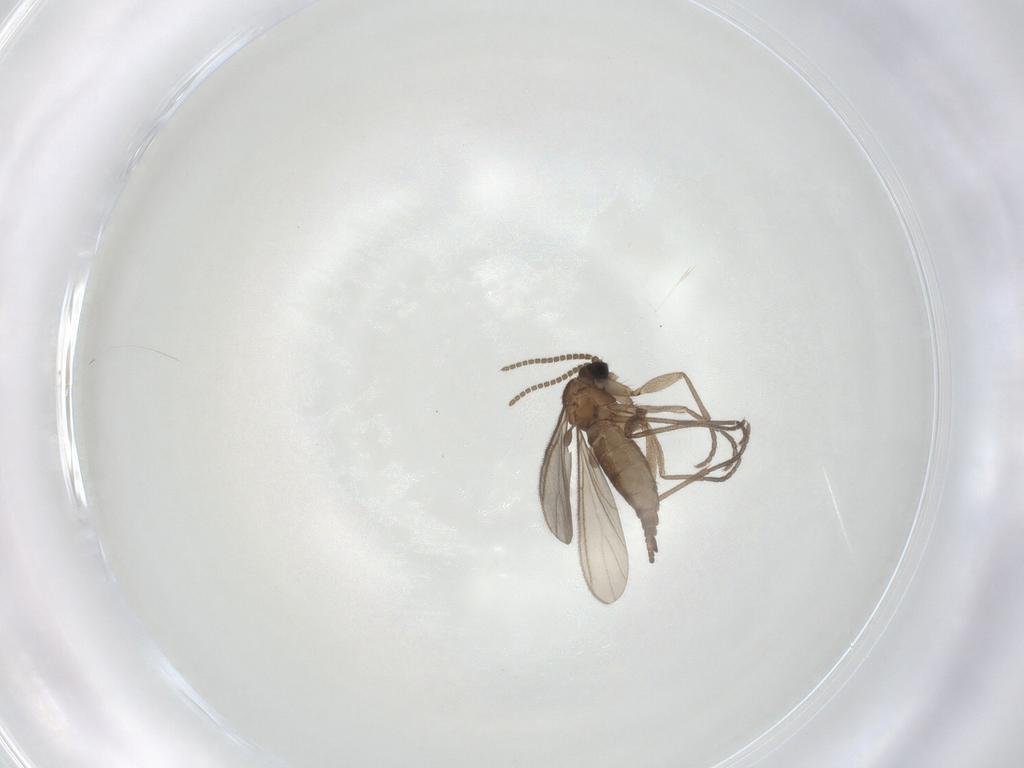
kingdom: Animalia
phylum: Arthropoda
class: Insecta
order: Diptera
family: Sciaridae
